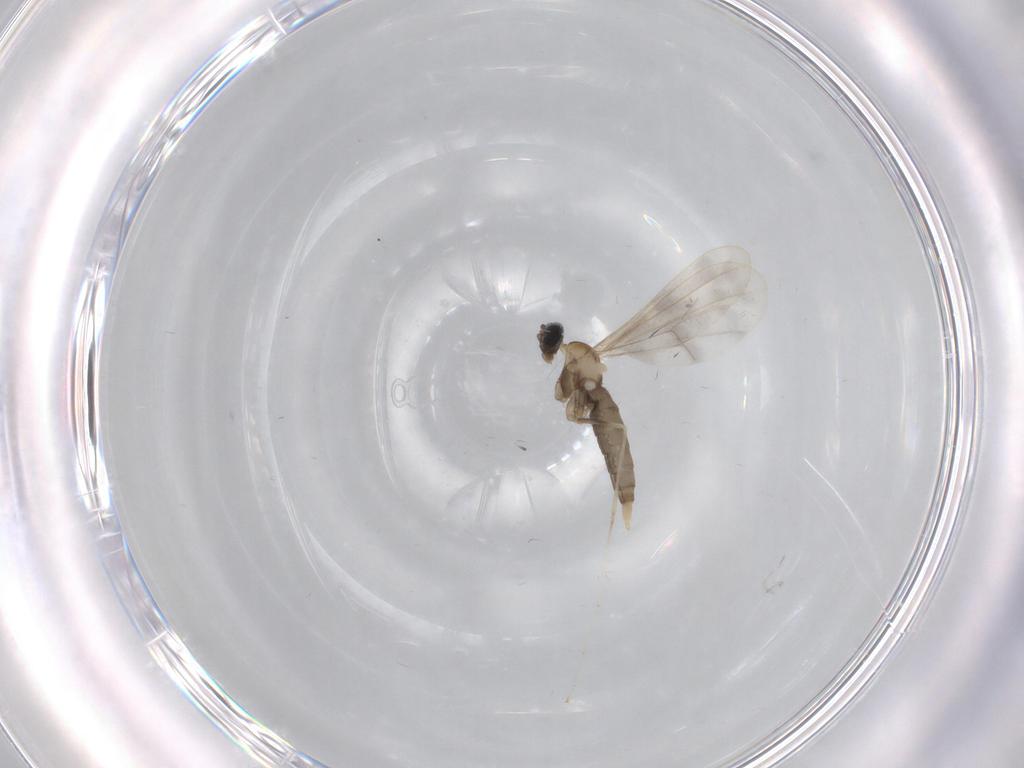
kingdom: Animalia
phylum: Arthropoda
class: Insecta
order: Diptera
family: Cecidomyiidae
